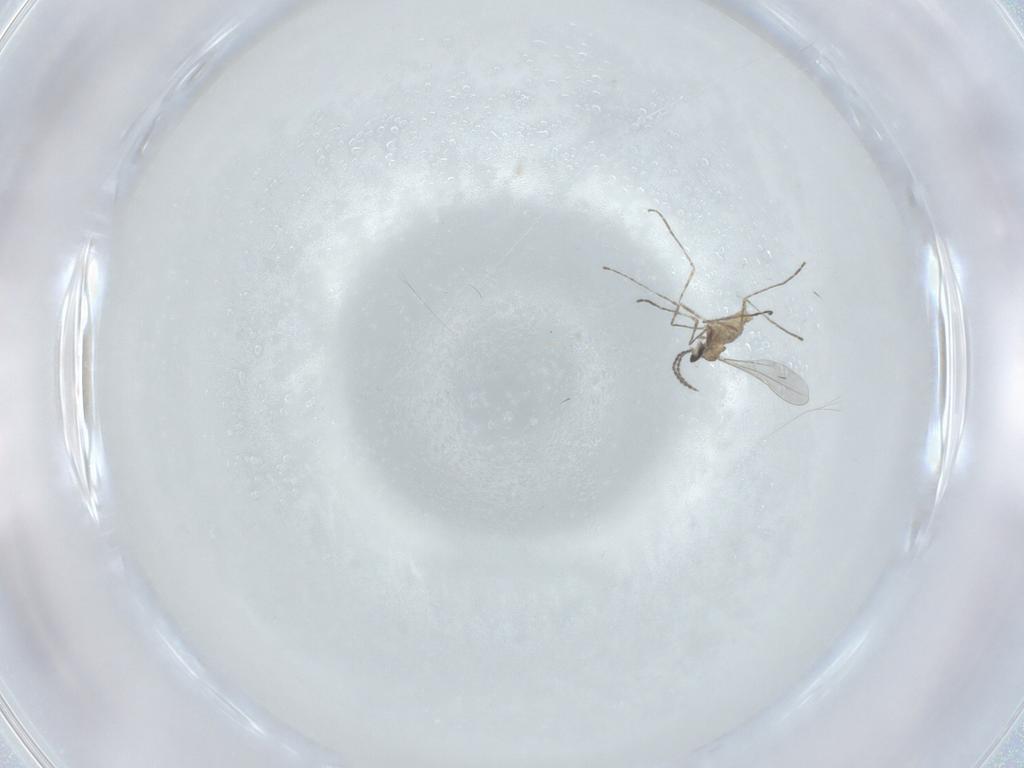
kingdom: Animalia
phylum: Arthropoda
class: Insecta
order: Diptera
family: Cecidomyiidae
